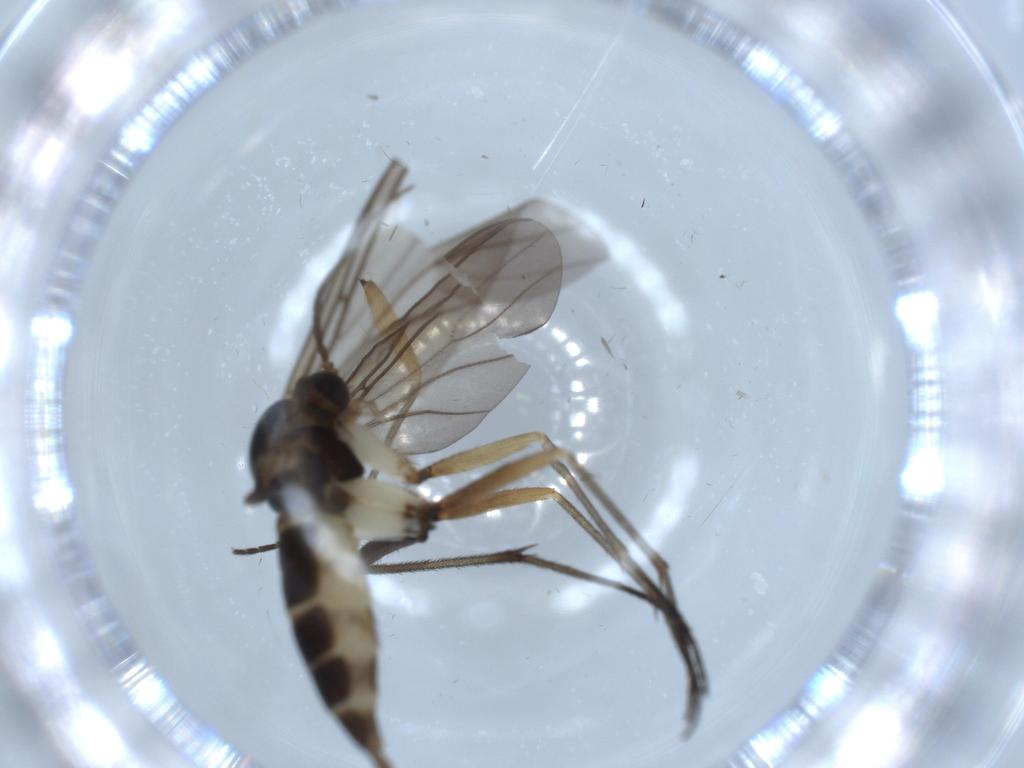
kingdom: Animalia
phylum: Arthropoda
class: Insecta
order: Diptera
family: Sciaridae
